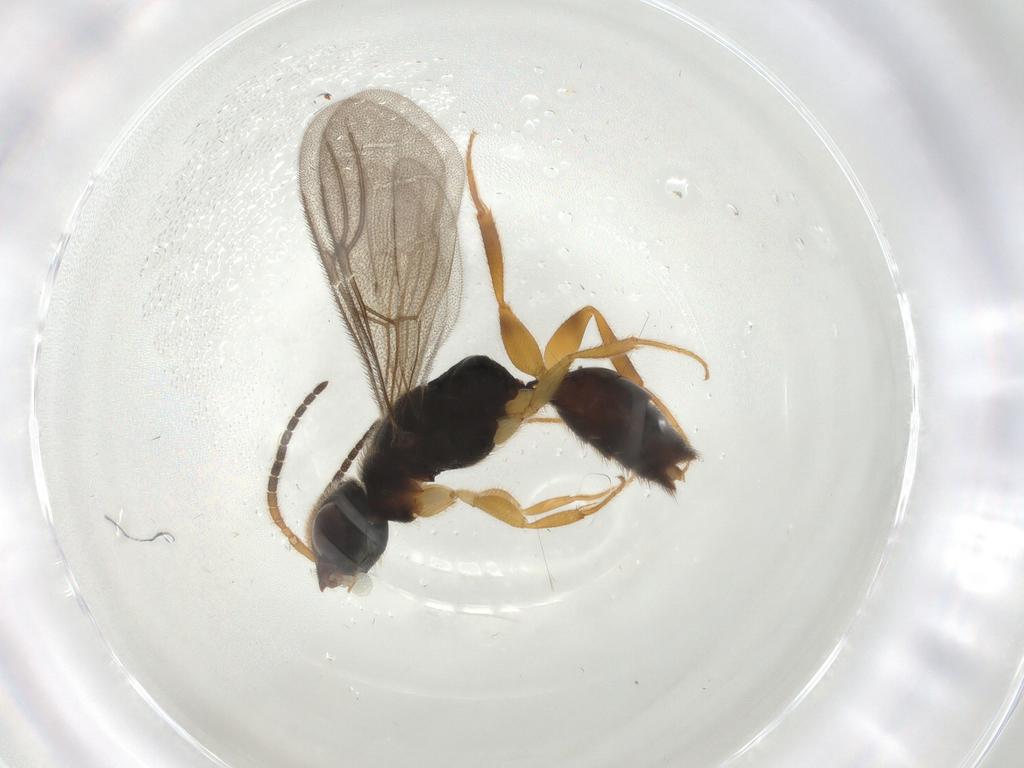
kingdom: Animalia
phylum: Arthropoda
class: Insecta
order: Hymenoptera
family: Bethylidae
